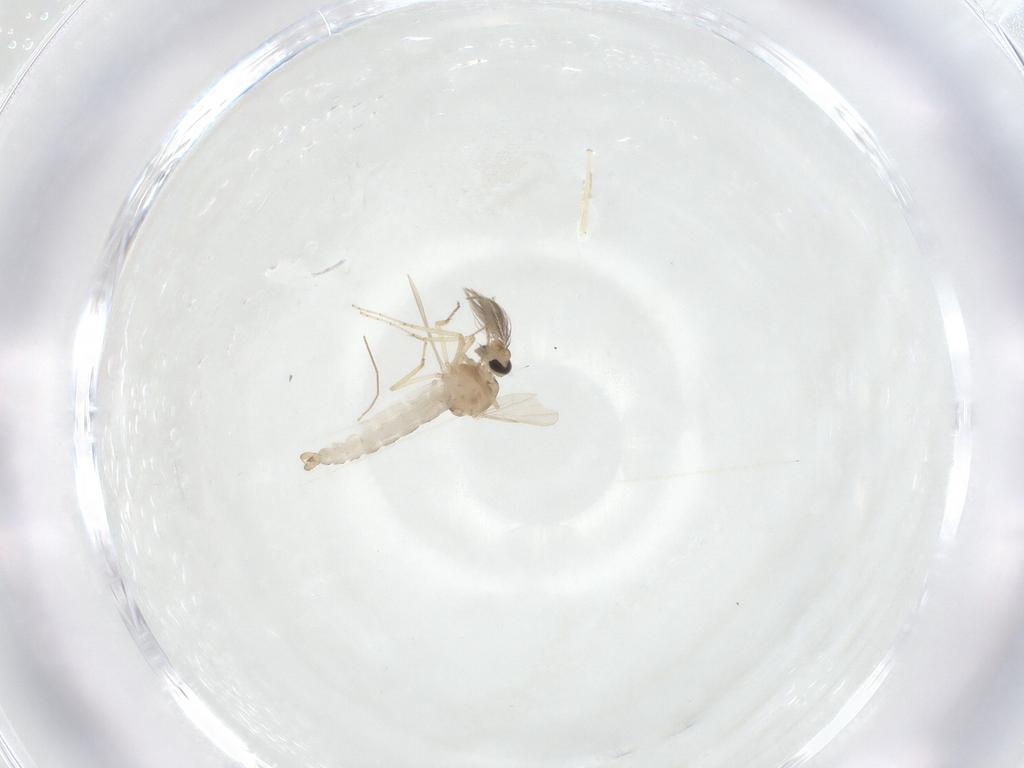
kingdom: Animalia
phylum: Arthropoda
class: Insecta
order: Diptera
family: Ceratopogonidae
